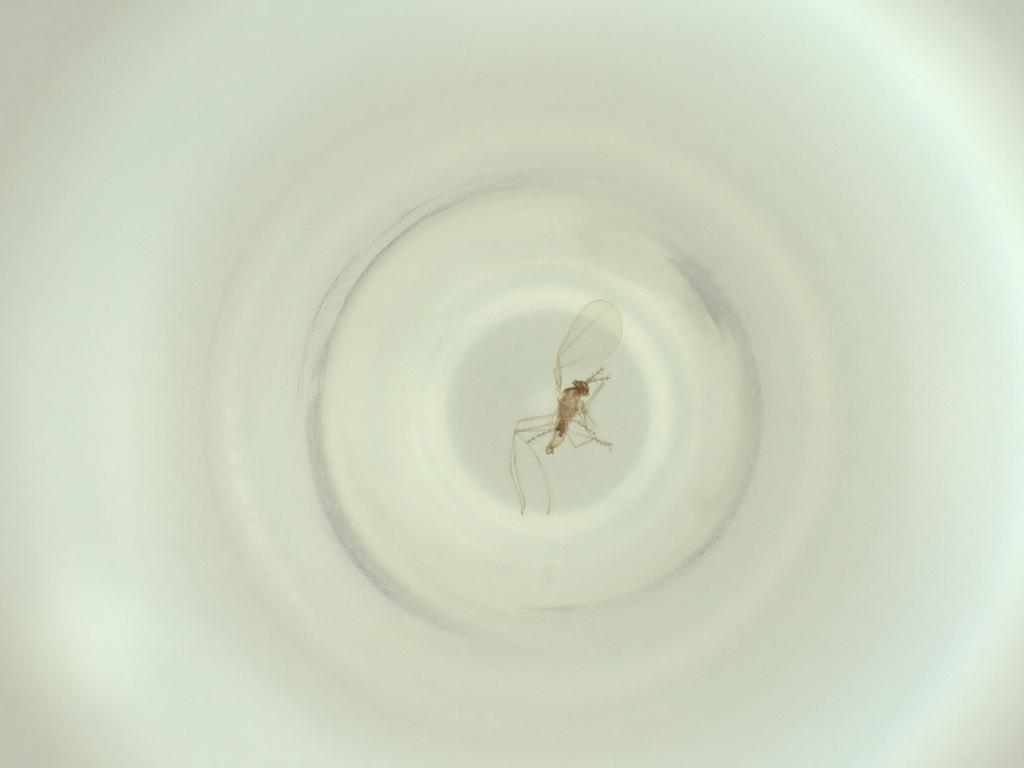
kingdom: Animalia
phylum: Arthropoda
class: Insecta
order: Diptera
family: Cecidomyiidae
